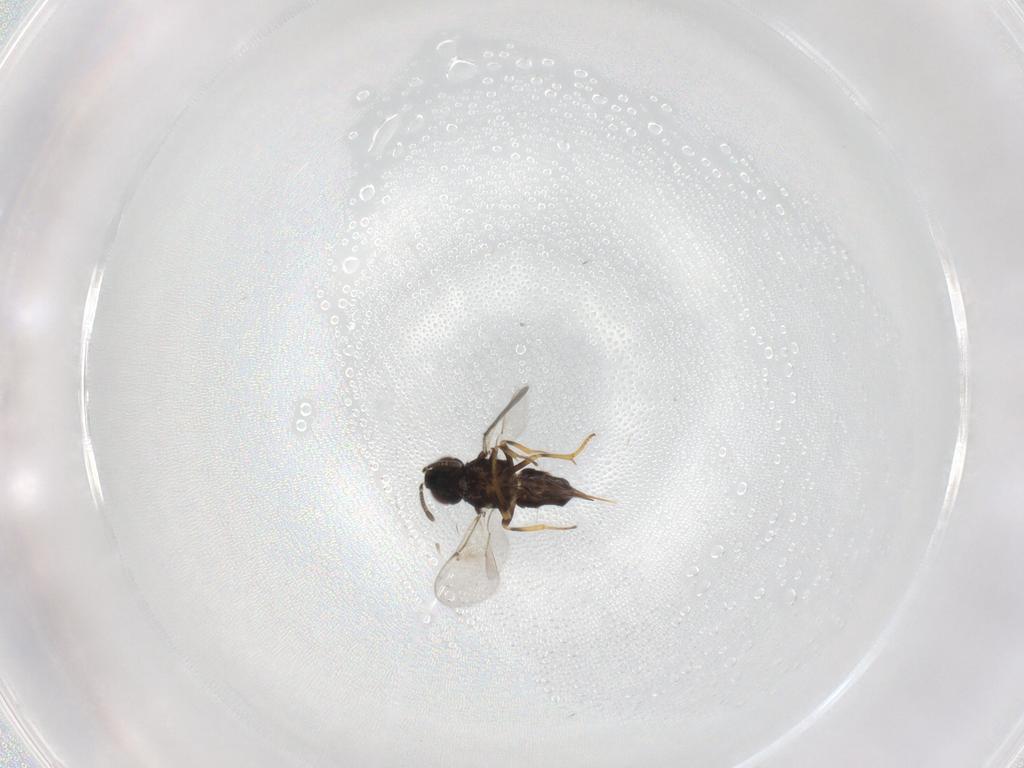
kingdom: Animalia
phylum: Arthropoda
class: Insecta
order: Hymenoptera
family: Encyrtidae
